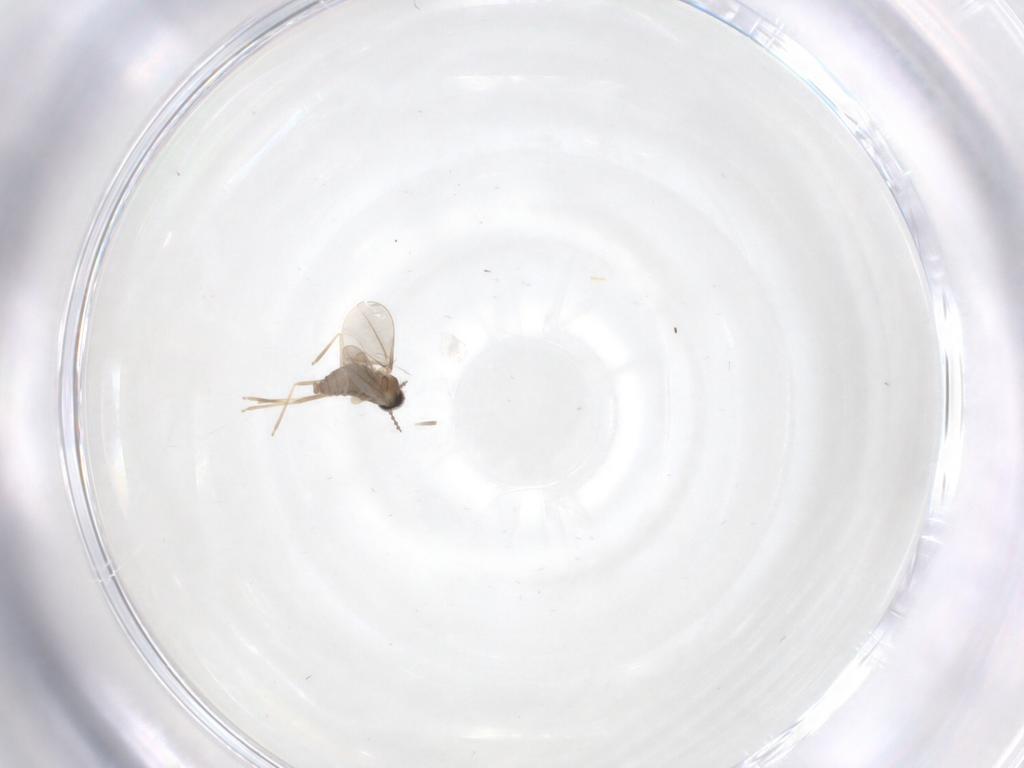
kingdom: Animalia
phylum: Arthropoda
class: Insecta
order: Diptera
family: Cecidomyiidae
